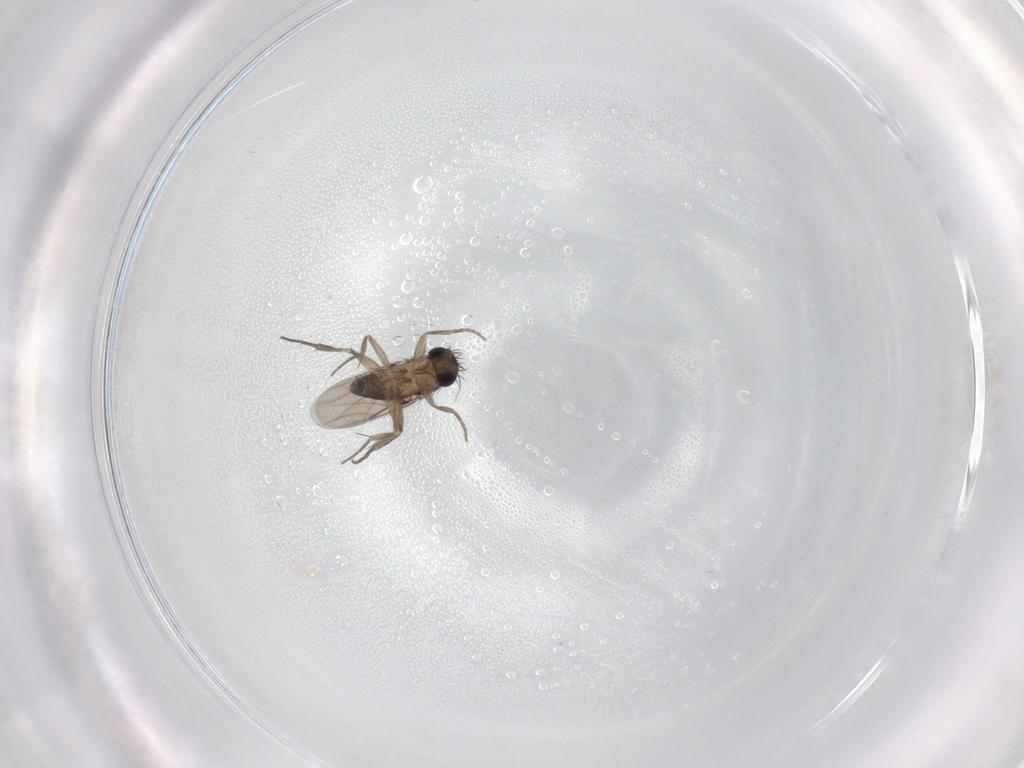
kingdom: Animalia
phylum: Arthropoda
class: Insecta
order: Diptera
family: Phoridae
